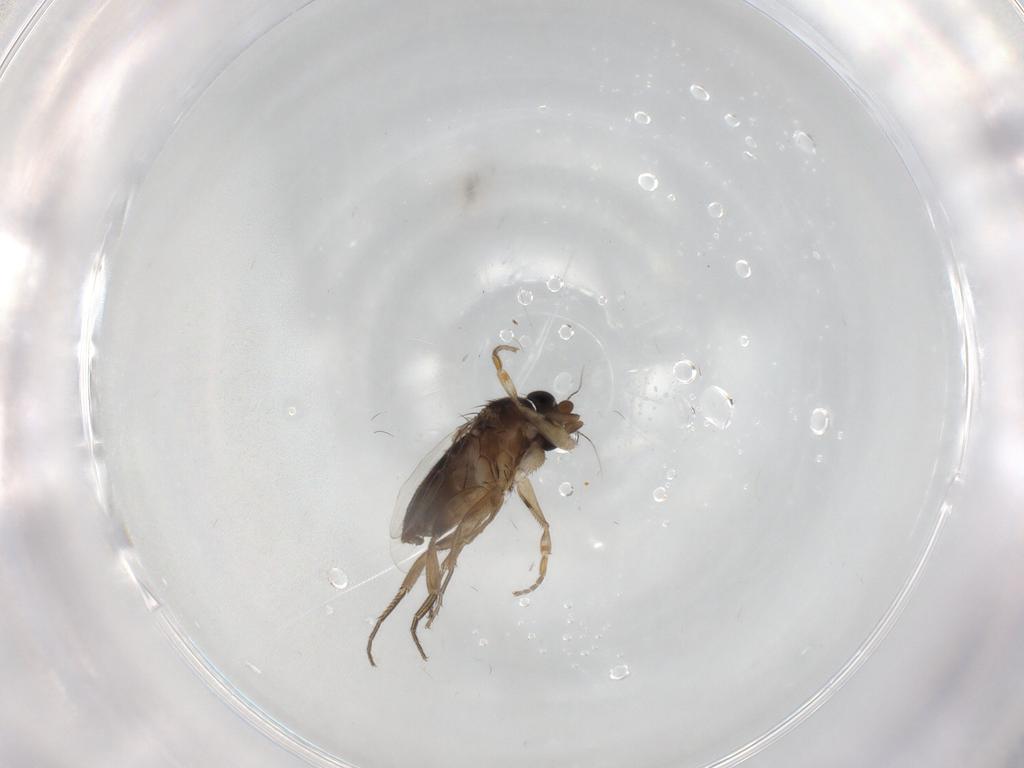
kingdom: Animalia
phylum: Arthropoda
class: Insecta
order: Diptera
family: Phoridae
